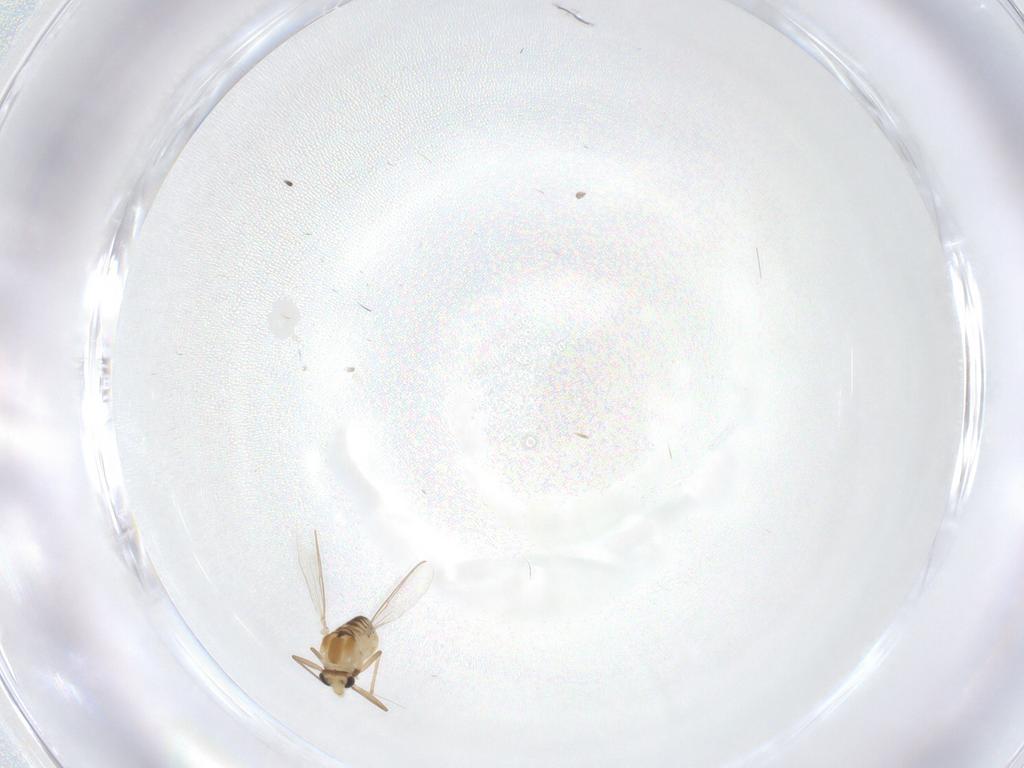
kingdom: Animalia
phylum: Arthropoda
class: Insecta
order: Diptera
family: Chironomidae
